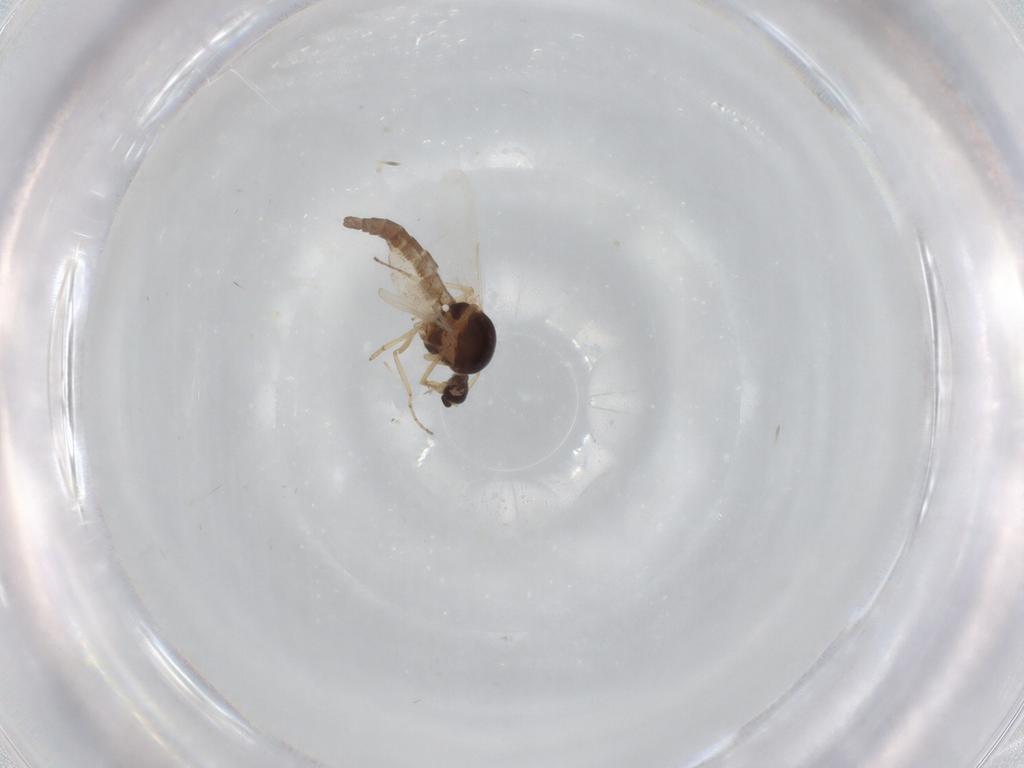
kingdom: Animalia
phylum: Arthropoda
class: Insecta
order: Diptera
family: Ceratopogonidae
